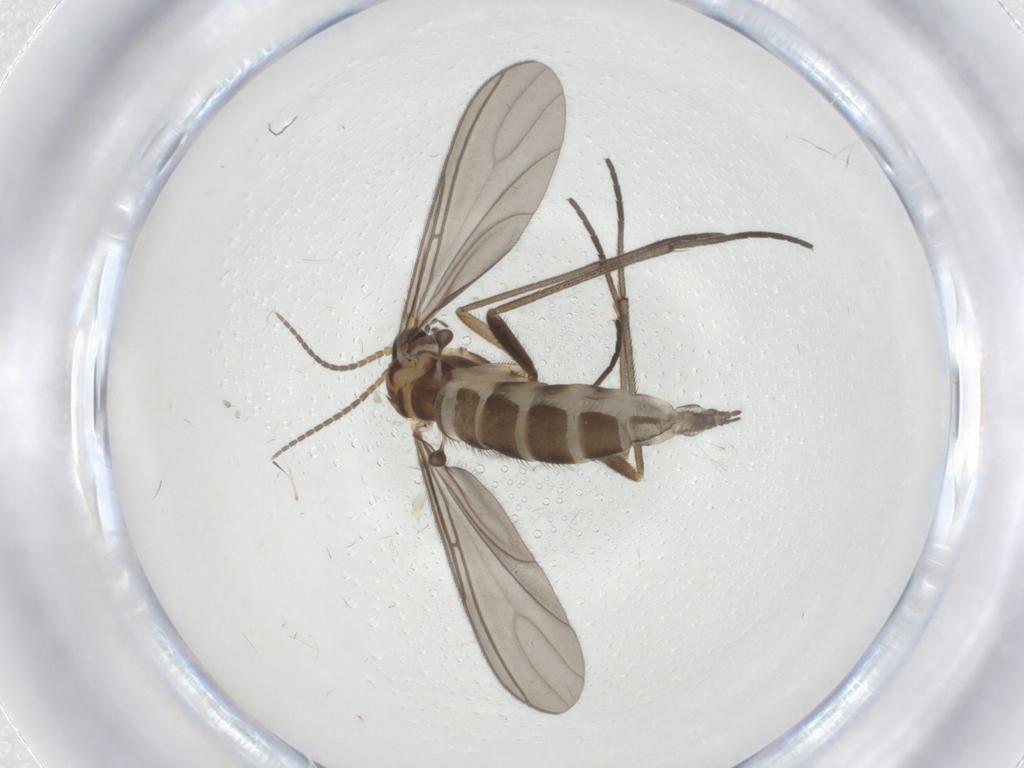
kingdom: Animalia
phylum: Arthropoda
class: Insecta
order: Diptera
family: Sciaridae
